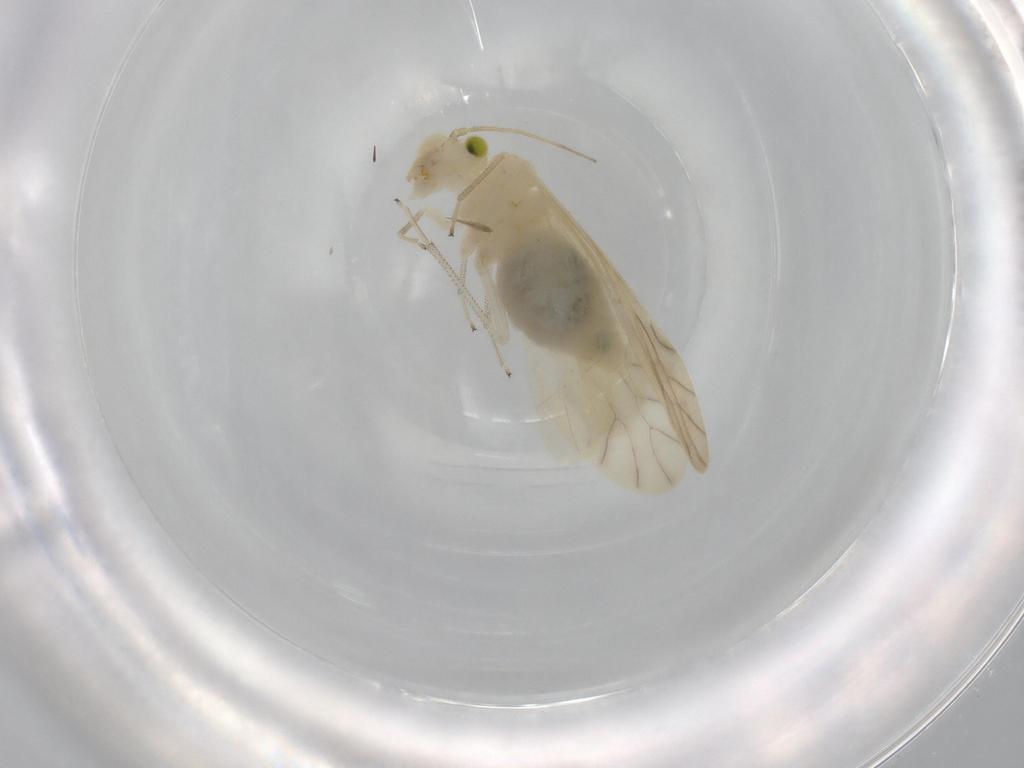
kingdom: Animalia
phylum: Arthropoda
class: Insecta
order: Psocodea
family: Caeciliusidae
